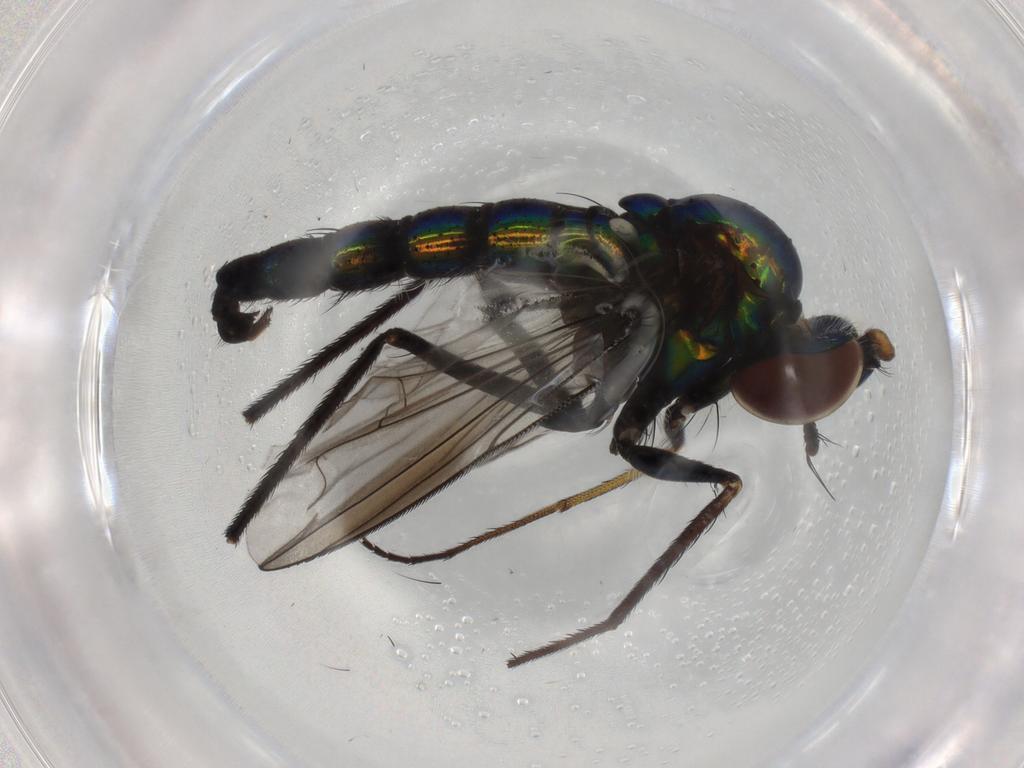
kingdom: Animalia
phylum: Arthropoda
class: Insecta
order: Diptera
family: Dolichopodidae
